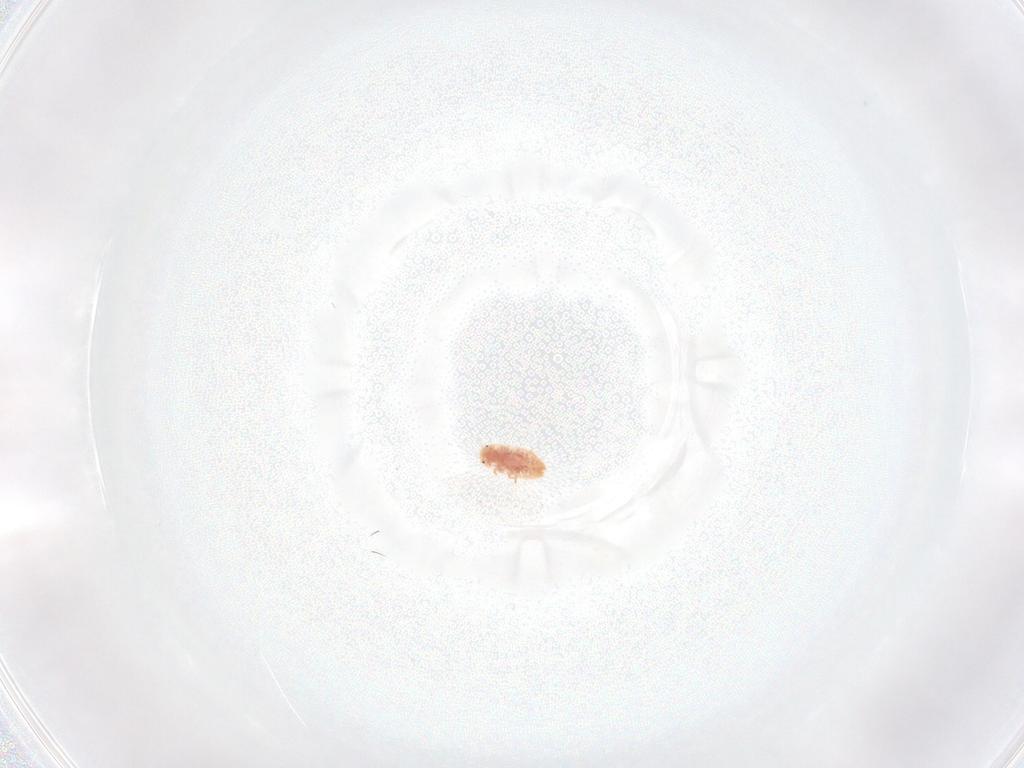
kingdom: Animalia
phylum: Arthropoda
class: Insecta
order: Hemiptera
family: Coccidae
